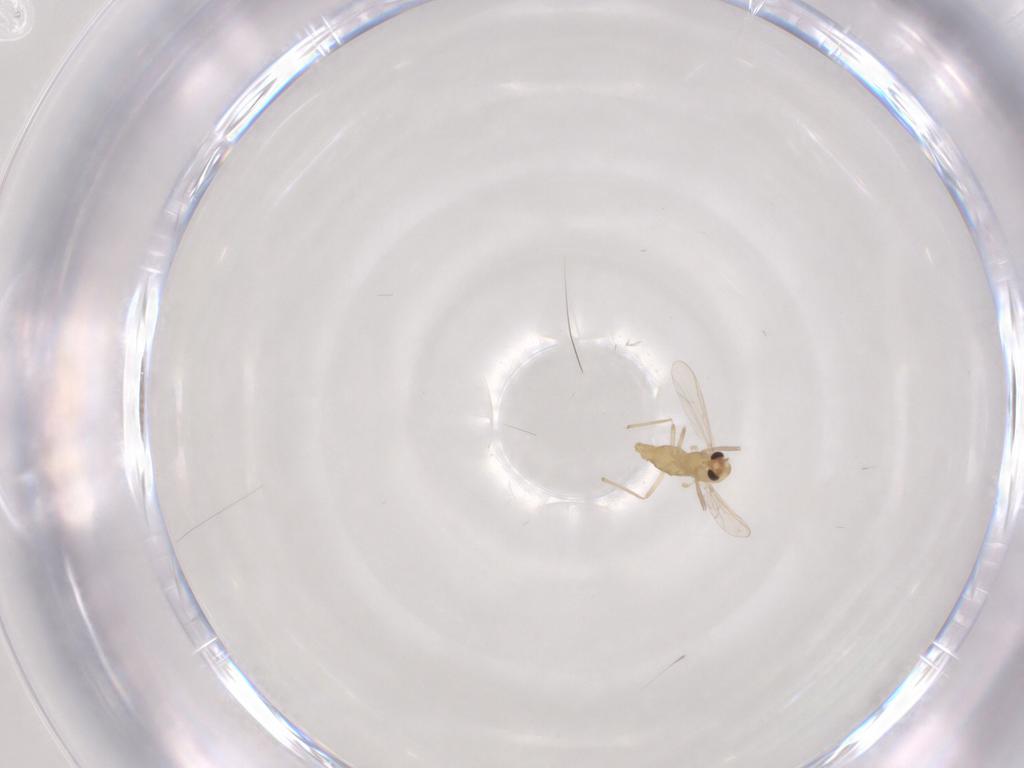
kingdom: Animalia
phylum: Arthropoda
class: Insecta
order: Diptera
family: Chironomidae
